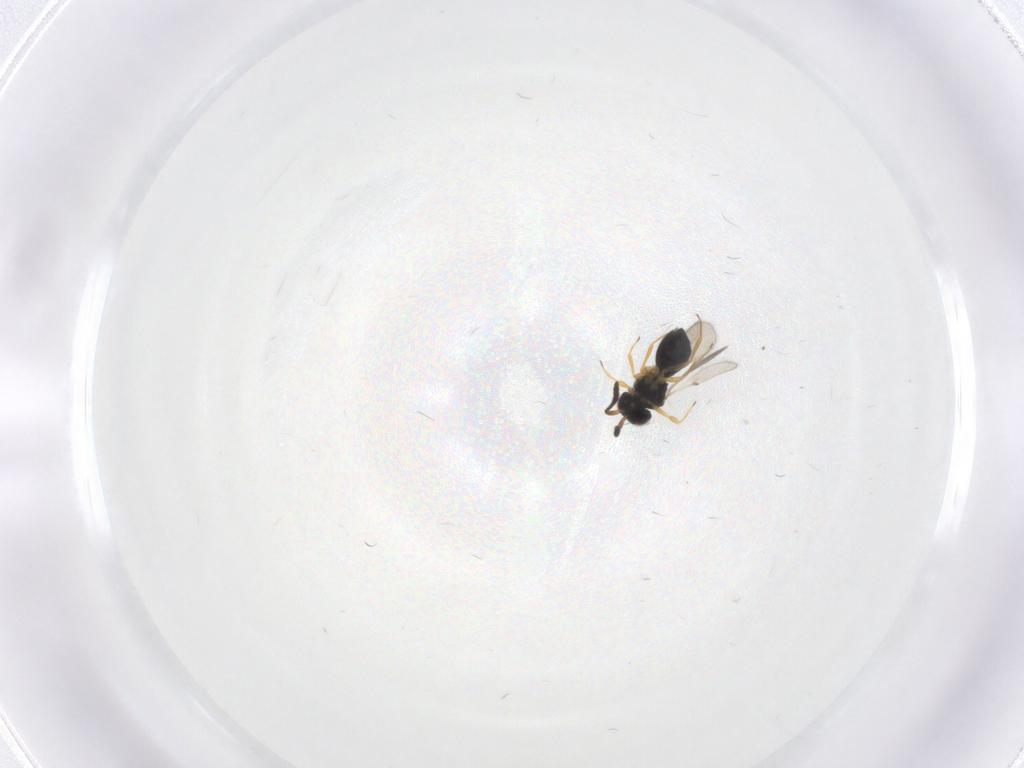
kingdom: Animalia
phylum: Arthropoda
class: Insecta
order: Hymenoptera
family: Scelionidae
